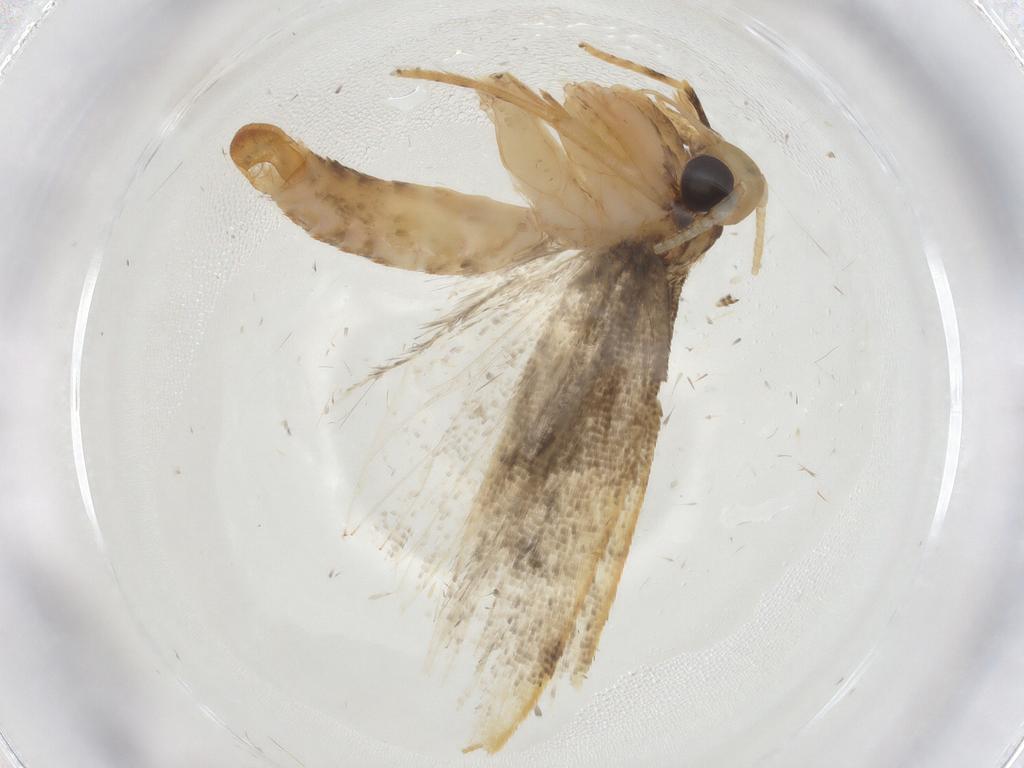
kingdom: Animalia
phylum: Arthropoda
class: Insecta
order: Lepidoptera
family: Lecithoceridae
